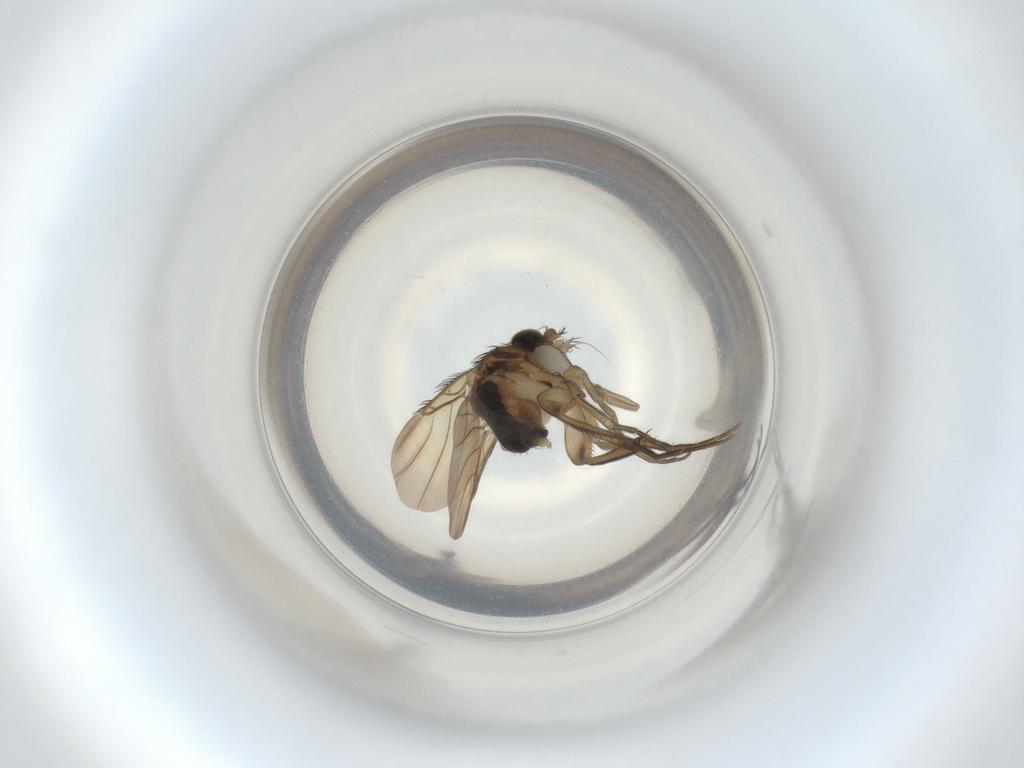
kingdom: Animalia
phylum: Arthropoda
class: Insecta
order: Diptera
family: Phoridae
